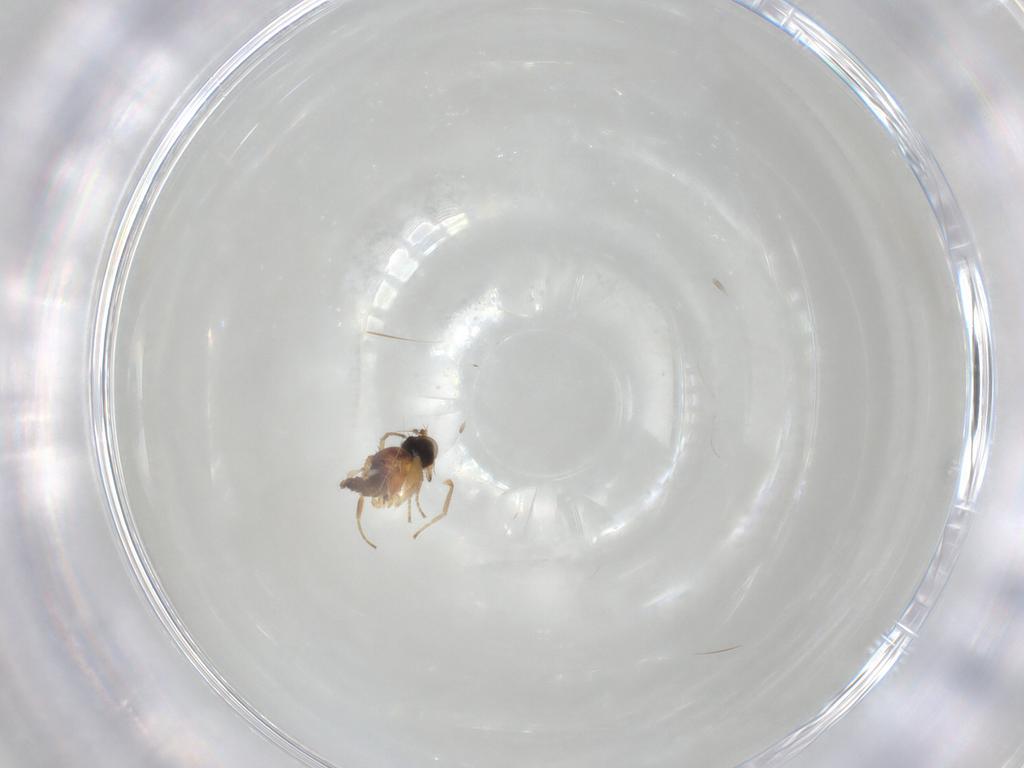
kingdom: Animalia
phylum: Arthropoda
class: Insecta
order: Diptera
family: Hybotidae
